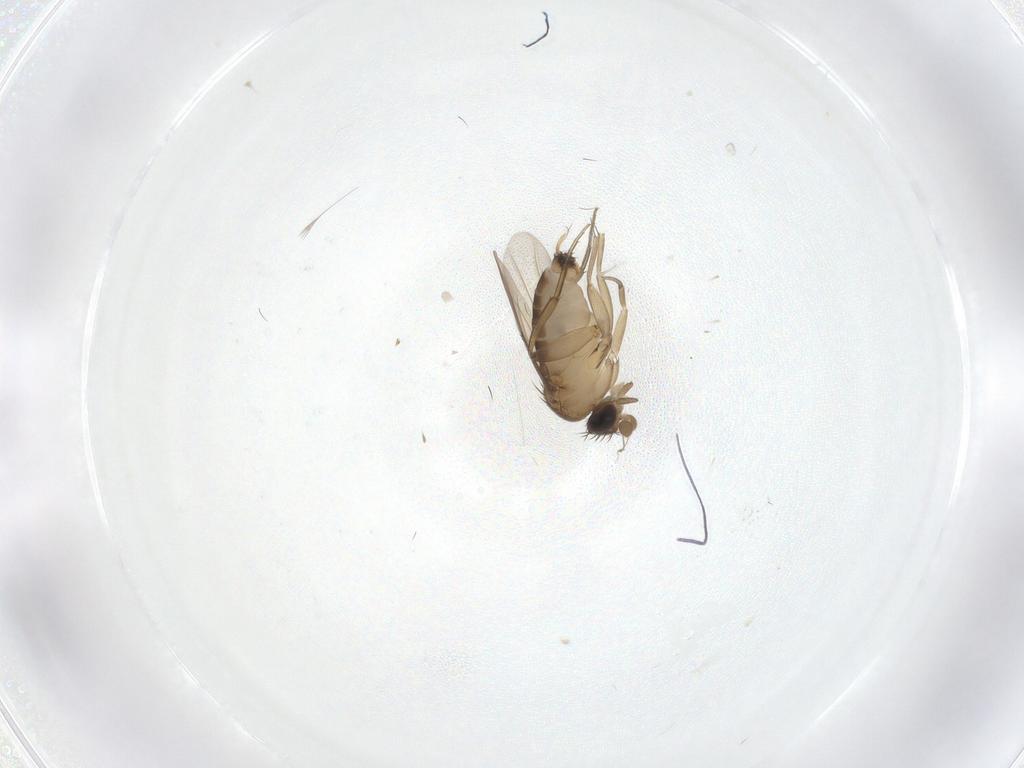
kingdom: Animalia
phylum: Arthropoda
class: Insecta
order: Diptera
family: Phoridae
